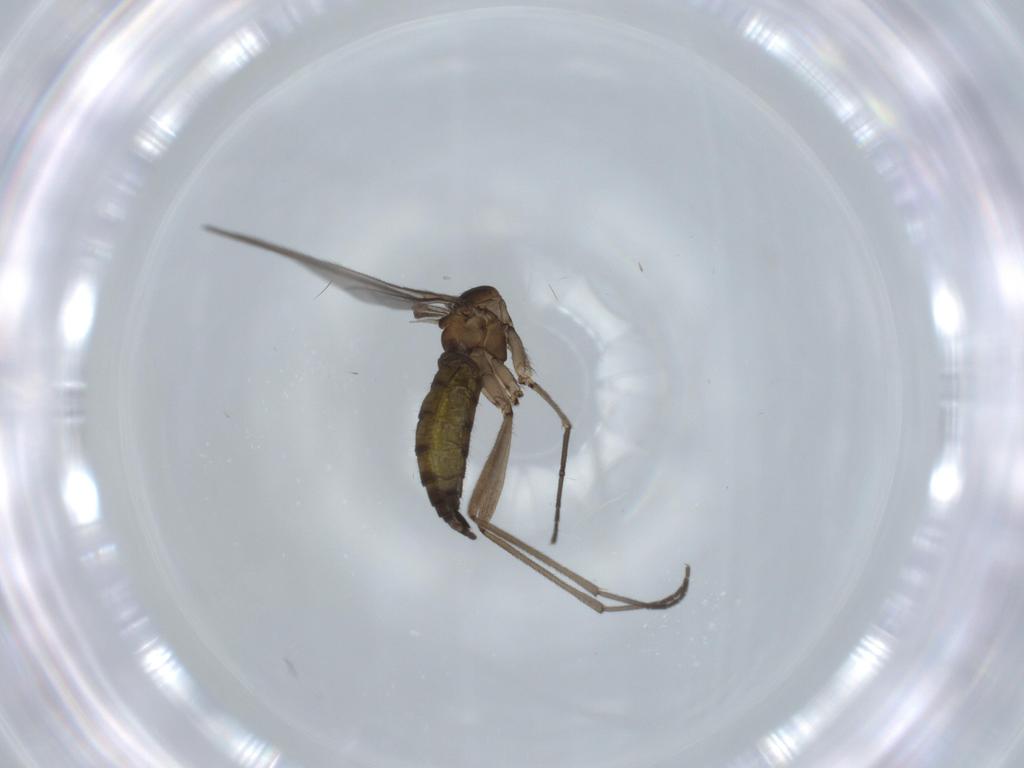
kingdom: Animalia
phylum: Arthropoda
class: Insecta
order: Diptera
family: Sciaridae
